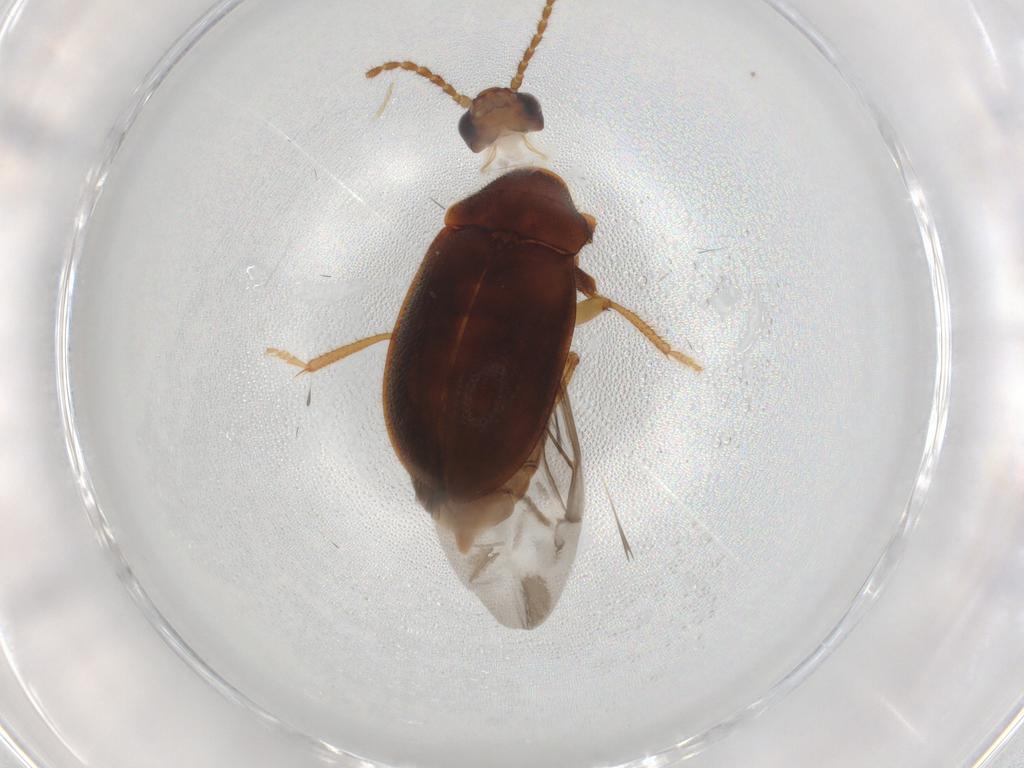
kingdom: Animalia
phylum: Arthropoda
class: Insecta
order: Coleoptera
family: Ptilodactylidae
